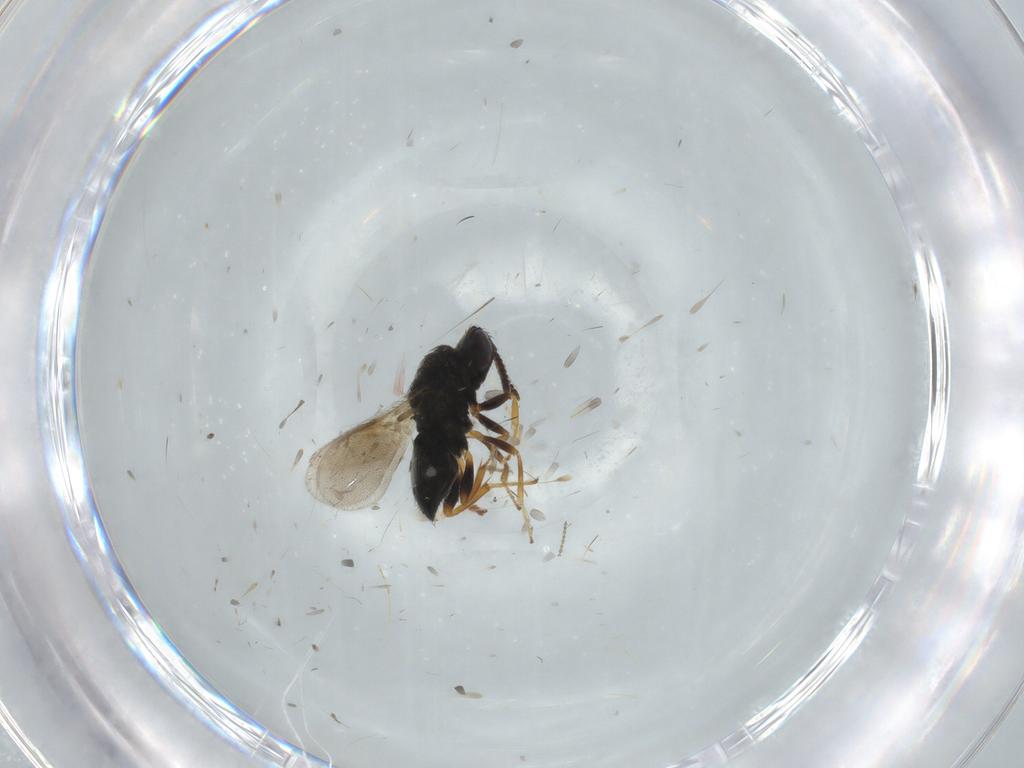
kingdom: Animalia
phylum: Arthropoda
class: Insecta
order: Hymenoptera
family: Pteromalidae
